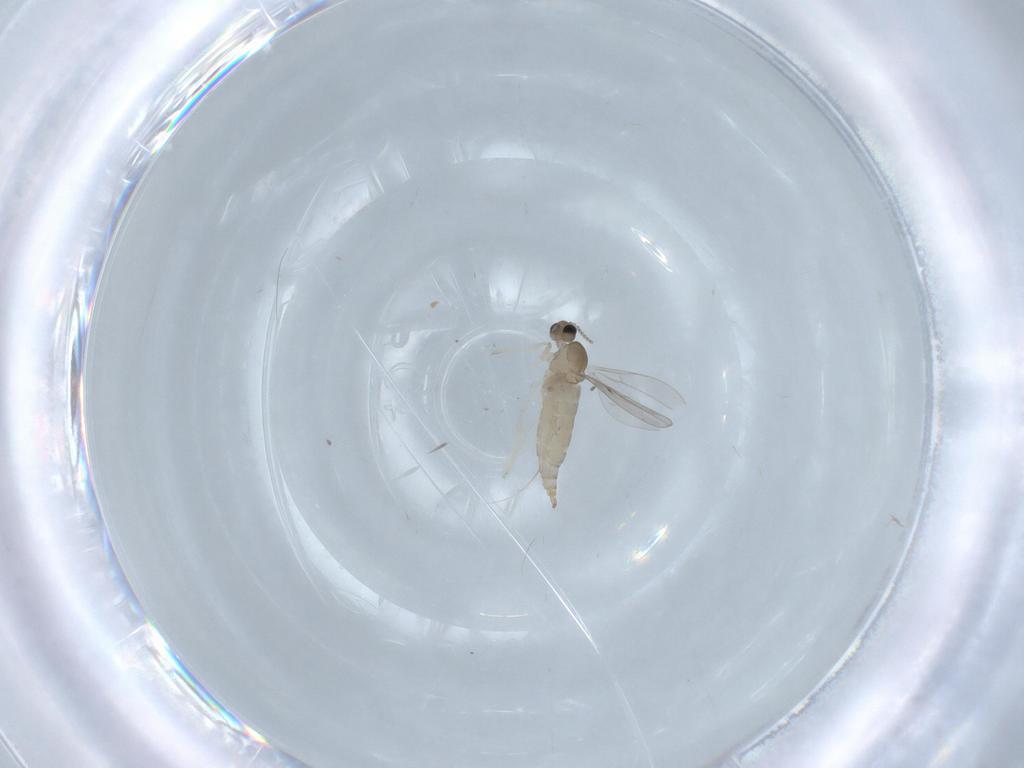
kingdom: Animalia
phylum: Arthropoda
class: Insecta
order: Diptera
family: Cecidomyiidae
